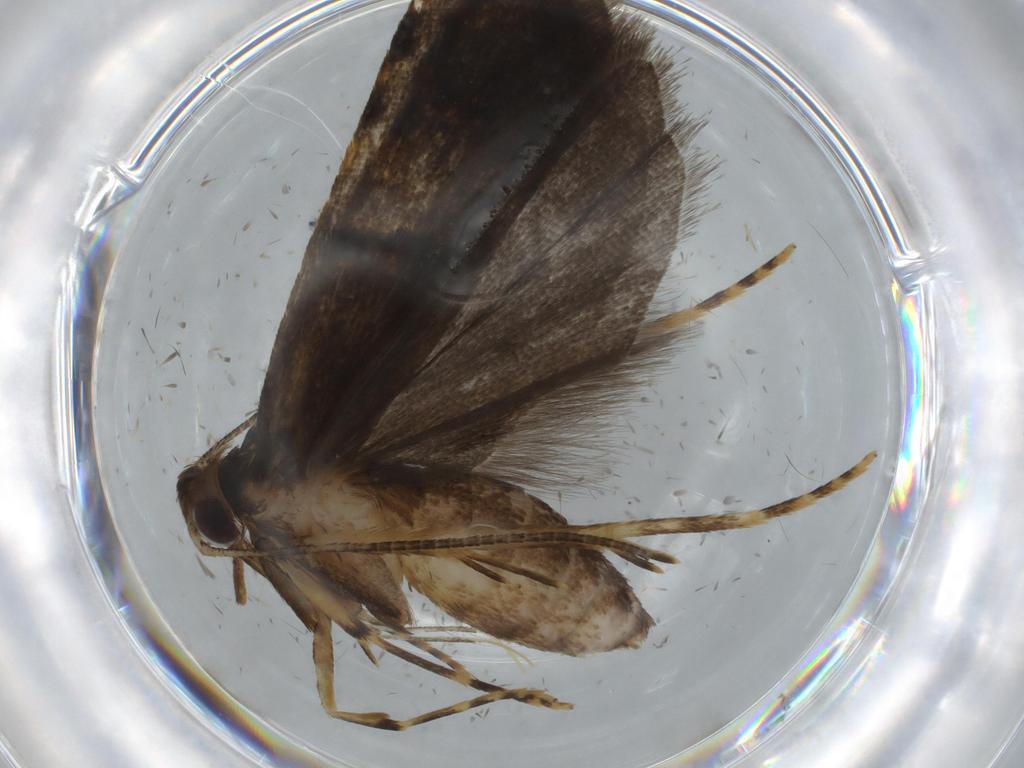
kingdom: Animalia
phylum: Arthropoda
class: Insecta
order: Lepidoptera
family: Autostichidae
